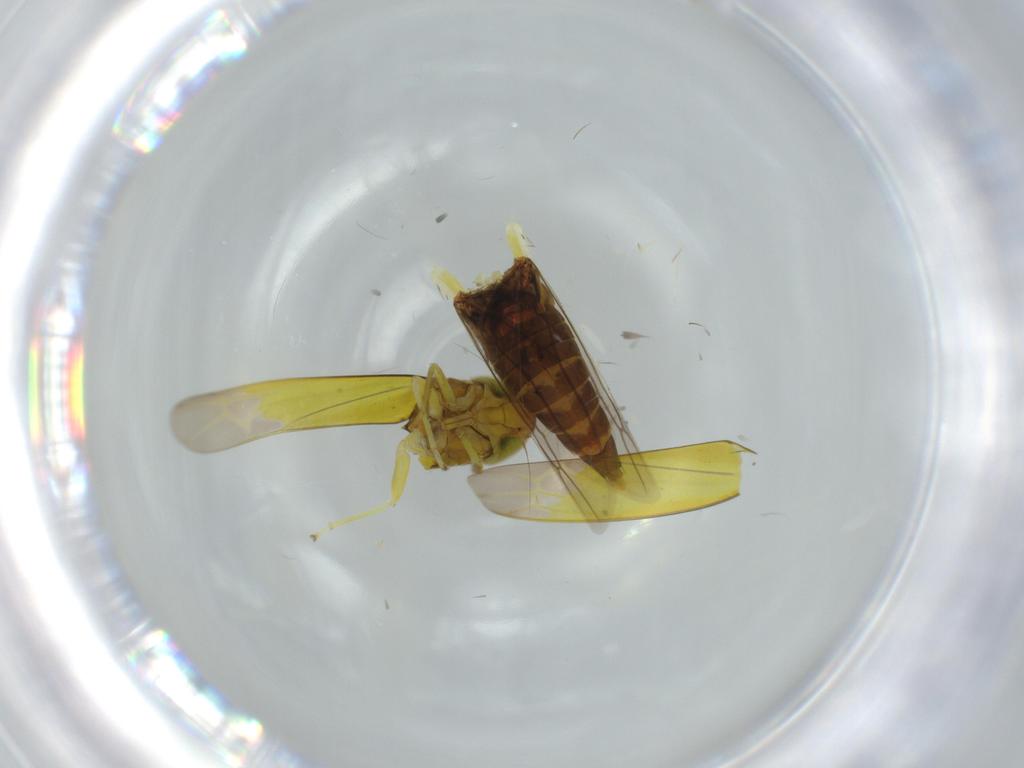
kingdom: Animalia
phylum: Arthropoda
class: Insecta
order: Hemiptera
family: Cicadellidae
